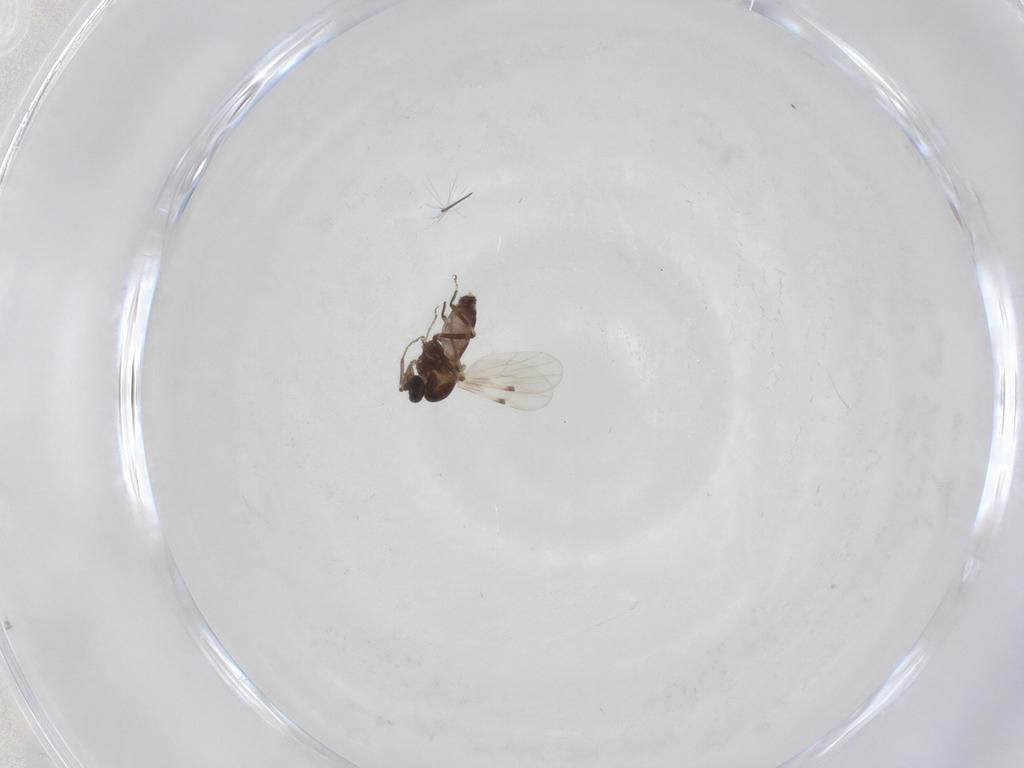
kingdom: Animalia
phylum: Arthropoda
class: Insecta
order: Diptera
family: Ceratopogonidae
